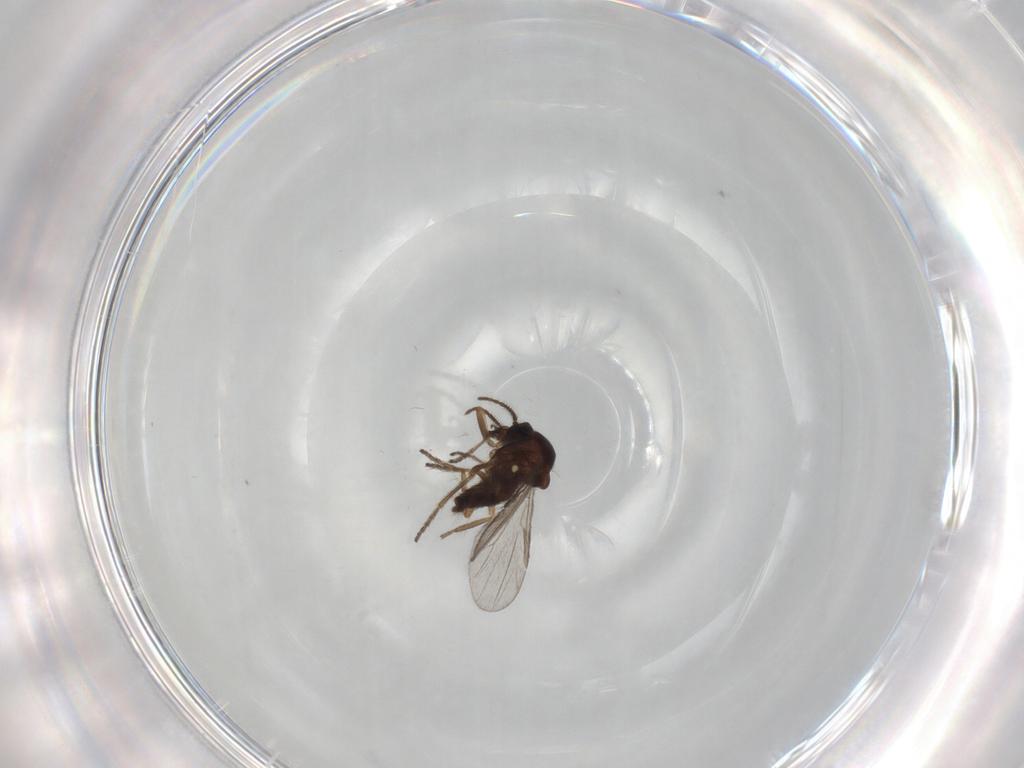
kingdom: Animalia
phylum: Arthropoda
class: Insecta
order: Diptera
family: Ceratopogonidae
